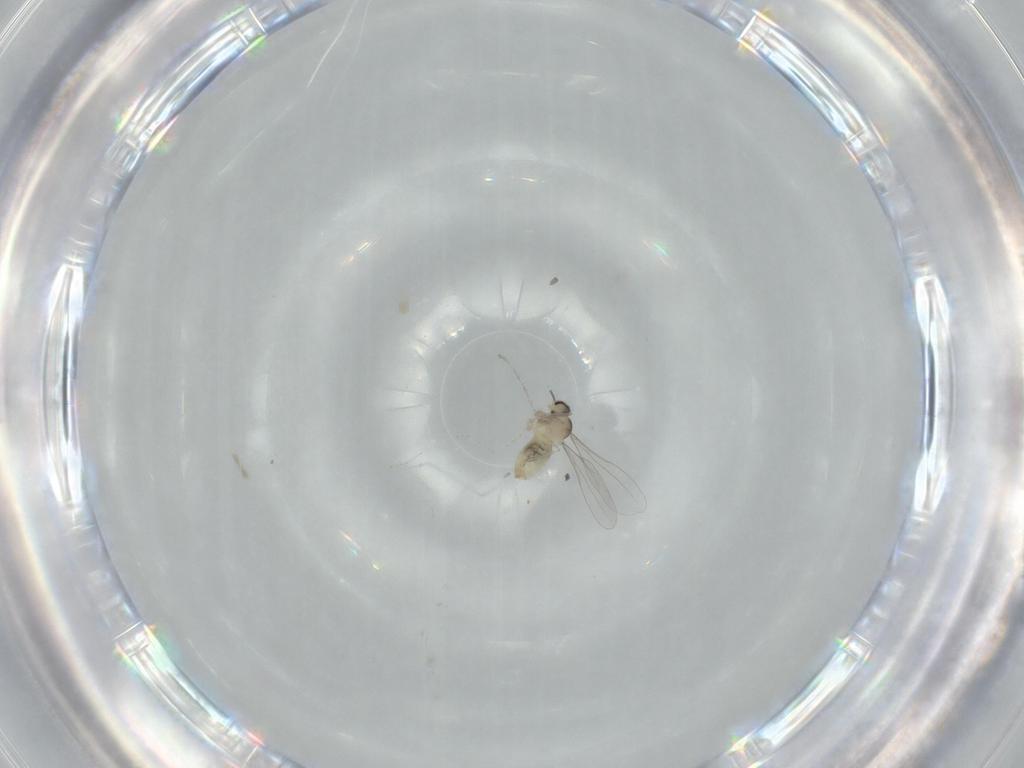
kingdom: Animalia
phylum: Arthropoda
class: Insecta
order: Diptera
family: Cecidomyiidae
